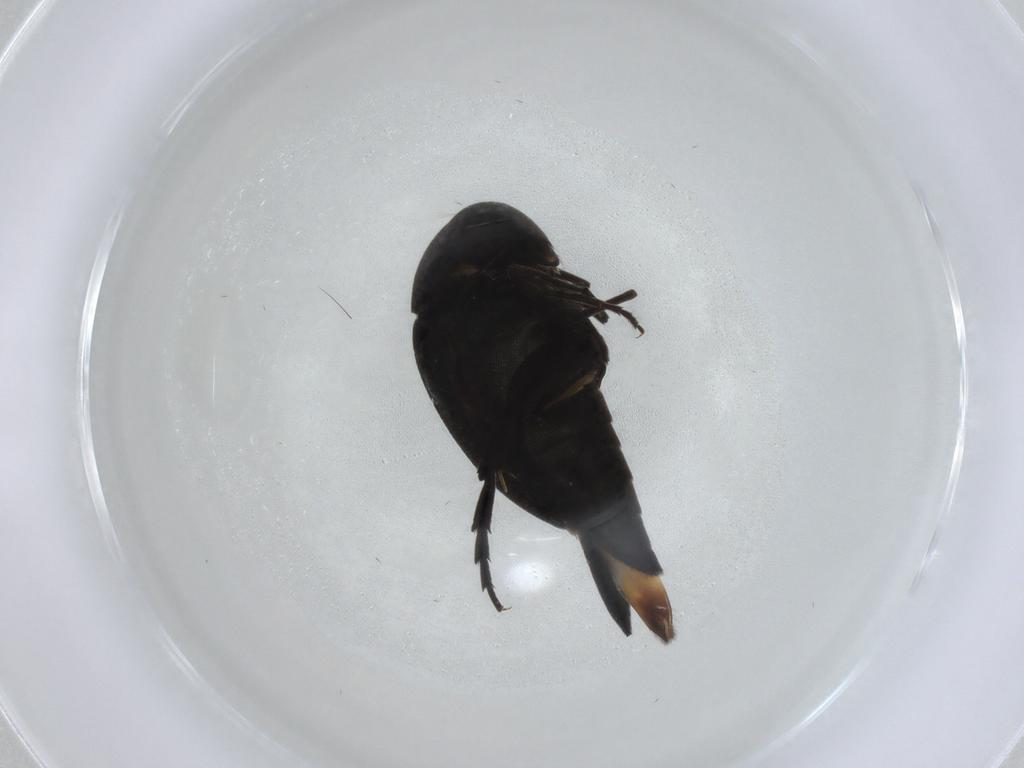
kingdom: Animalia
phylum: Arthropoda
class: Insecta
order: Coleoptera
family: Mordellidae
